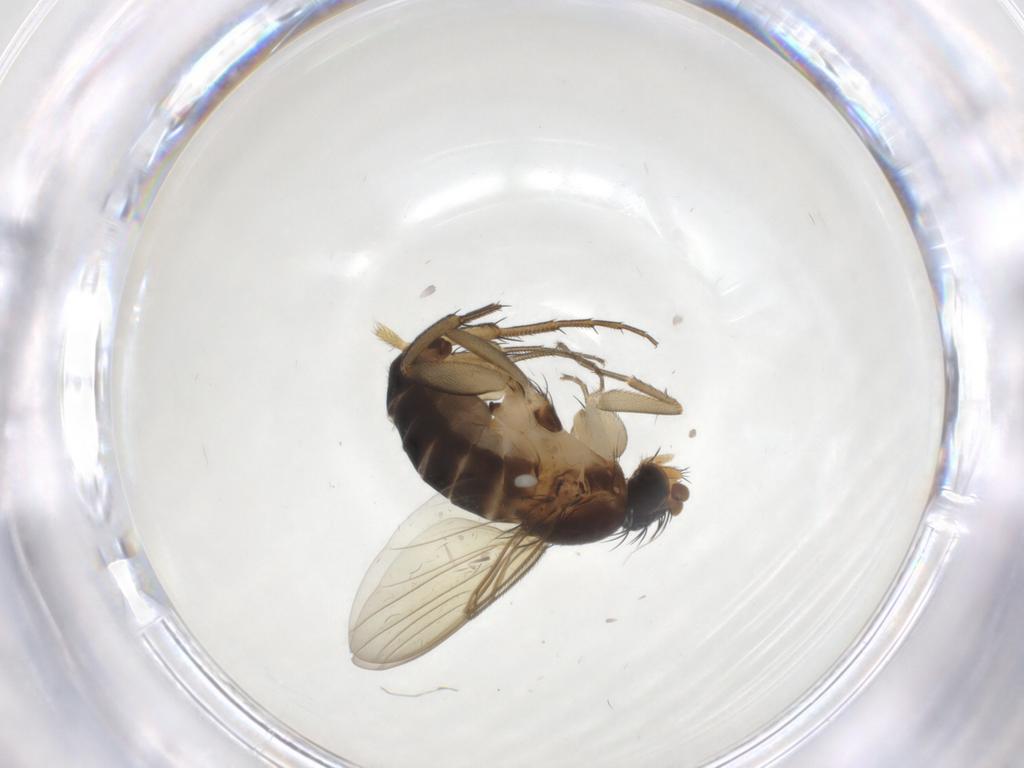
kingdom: Animalia
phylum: Arthropoda
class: Insecta
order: Diptera
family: Phoridae
